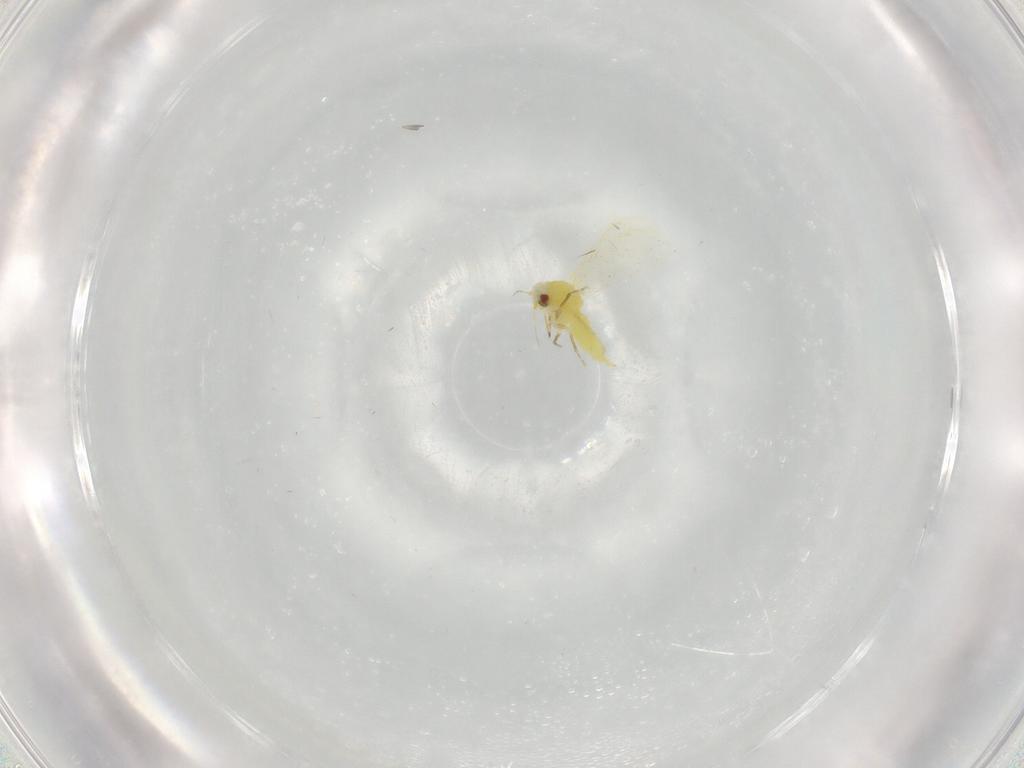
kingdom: Animalia
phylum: Arthropoda
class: Insecta
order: Hemiptera
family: Aleyrodidae
